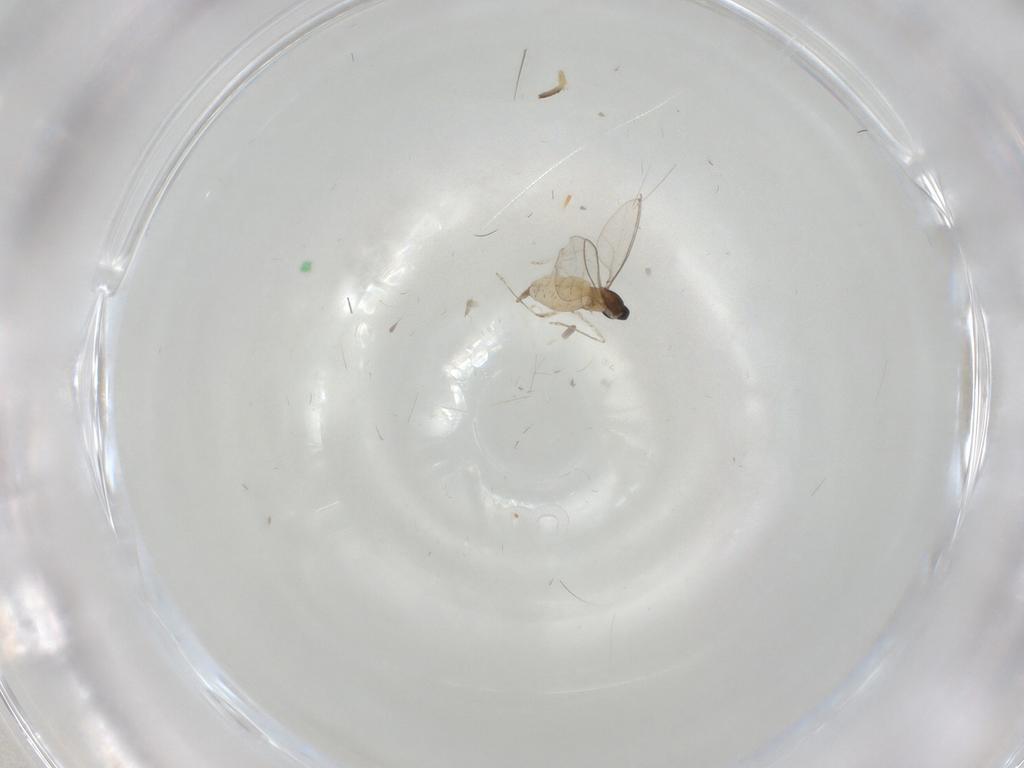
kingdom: Animalia
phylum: Arthropoda
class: Insecta
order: Diptera
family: Cecidomyiidae
